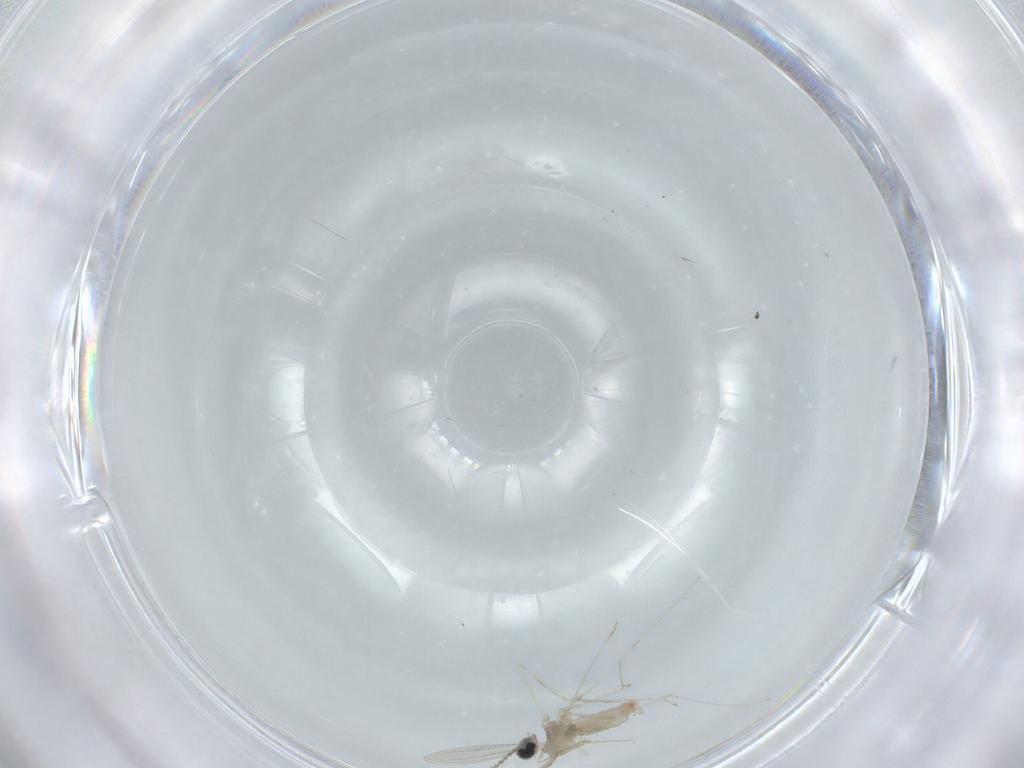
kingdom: Animalia
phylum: Arthropoda
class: Insecta
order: Diptera
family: Cecidomyiidae
